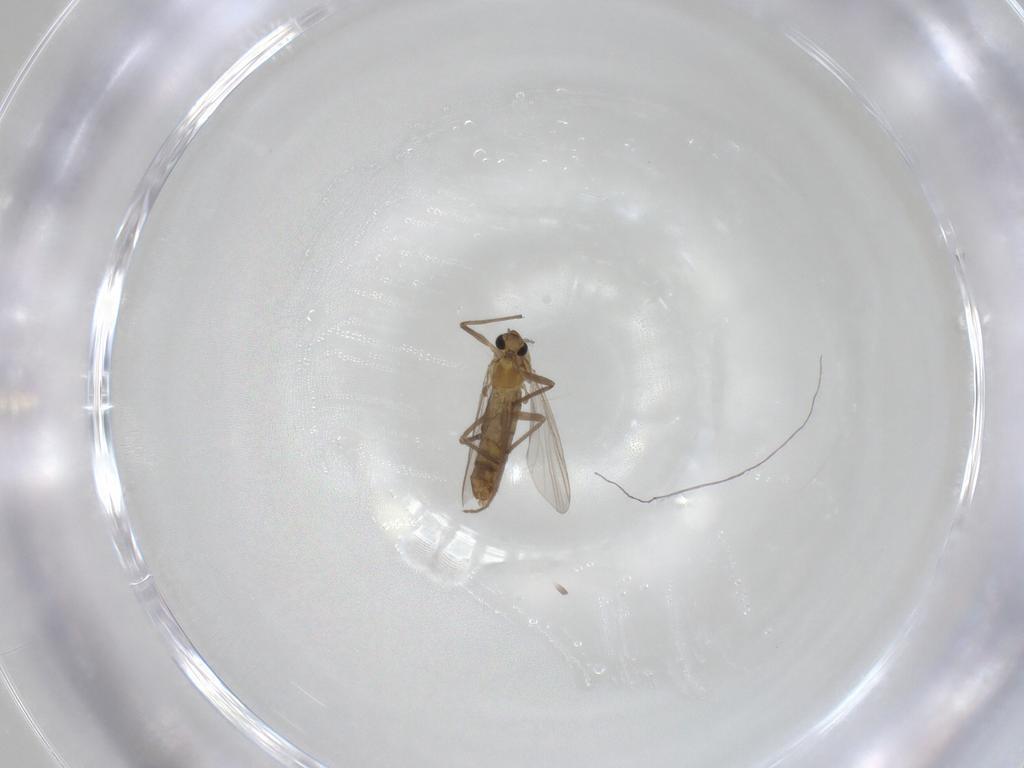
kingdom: Animalia
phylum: Arthropoda
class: Insecta
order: Diptera
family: Chironomidae
